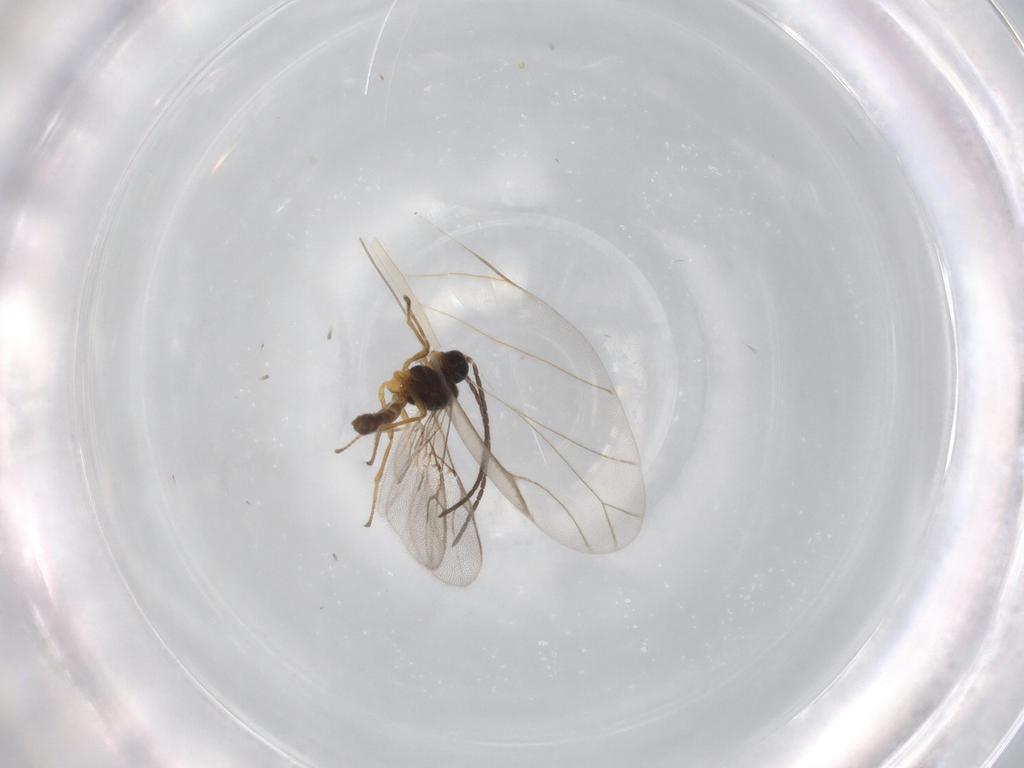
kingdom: Animalia
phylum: Arthropoda
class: Insecta
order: Hymenoptera
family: Braconidae
